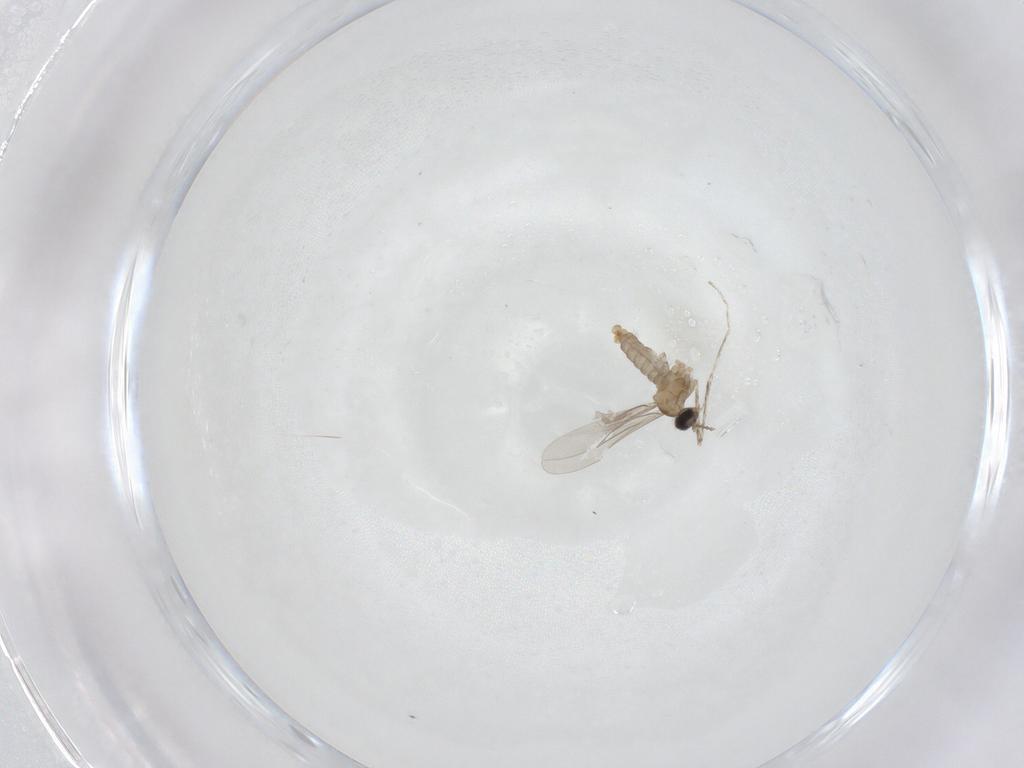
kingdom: Animalia
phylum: Arthropoda
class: Insecta
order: Diptera
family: Cecidomyiidae
